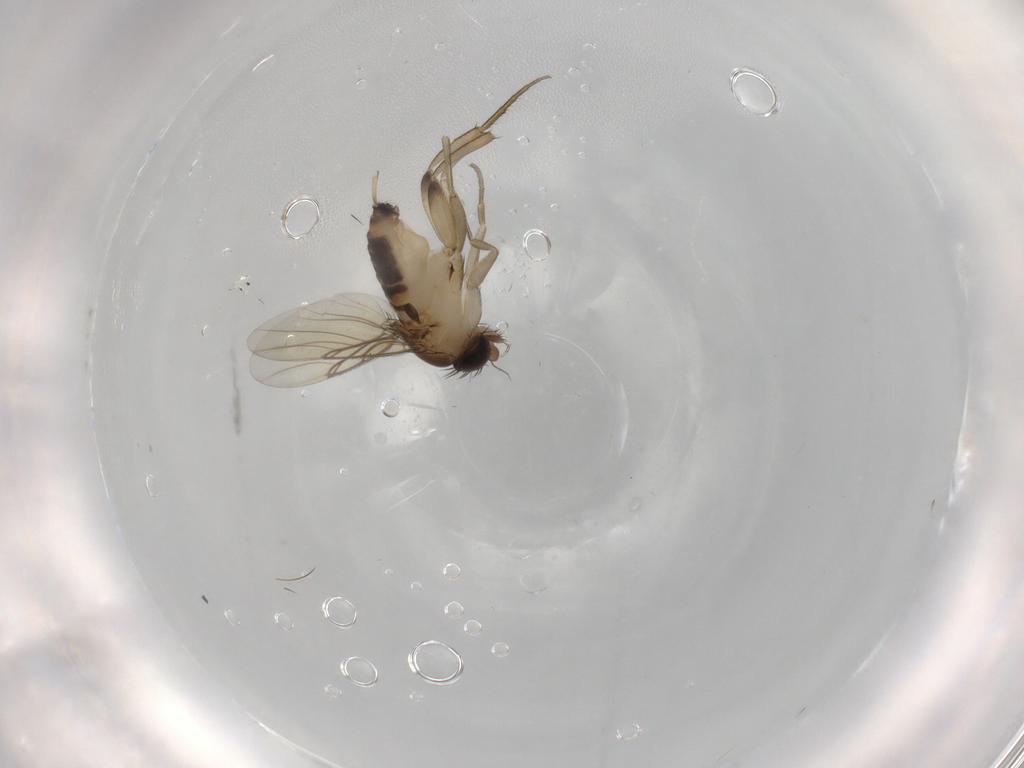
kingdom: Animalia
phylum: Arthropoda
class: Insecta
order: Diptera
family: Phoridae
